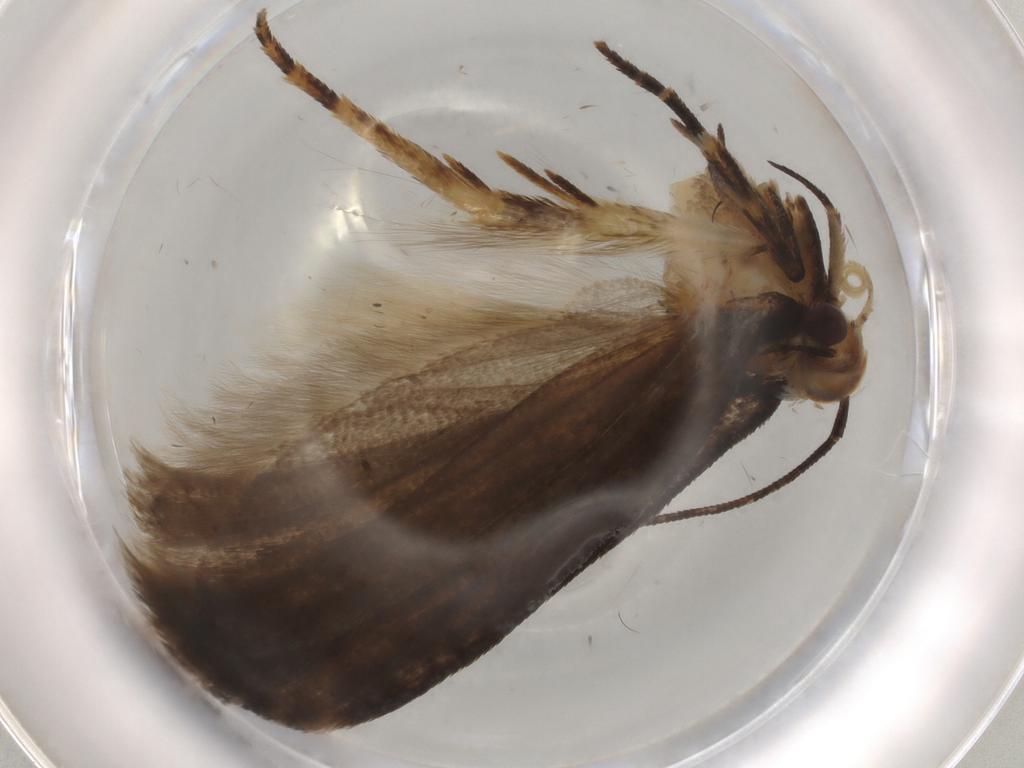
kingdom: Animalia
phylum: Arthropoda
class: Insecta
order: Lepidoptera
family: Gelechiidae
